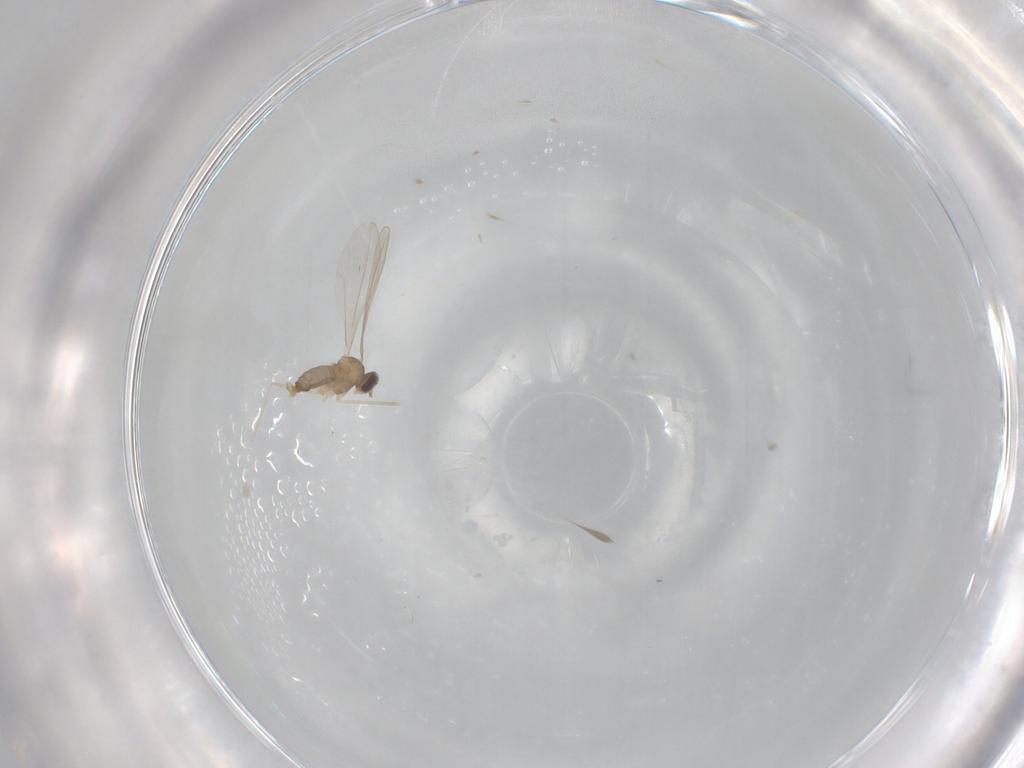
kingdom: Animalia
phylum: Arthropoda
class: Insecta
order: Diptera
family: Cecidomyiidae
